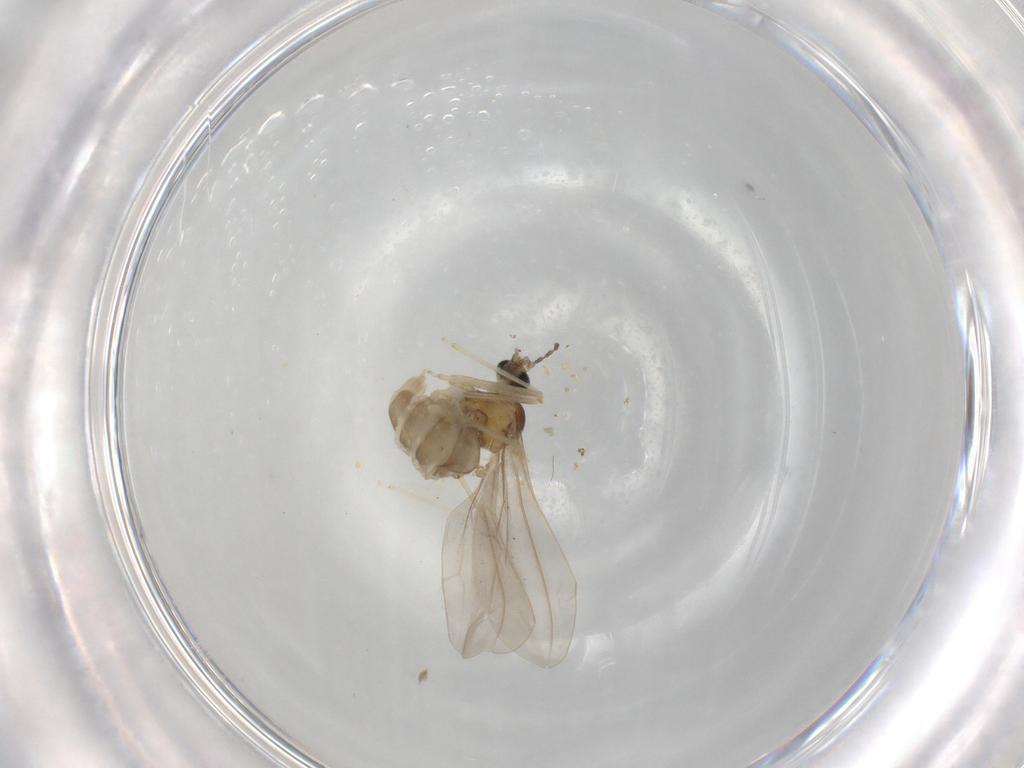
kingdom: Animalia
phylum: Arthropoda
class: Insecta
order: Diptera
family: Cecidomyiidae
